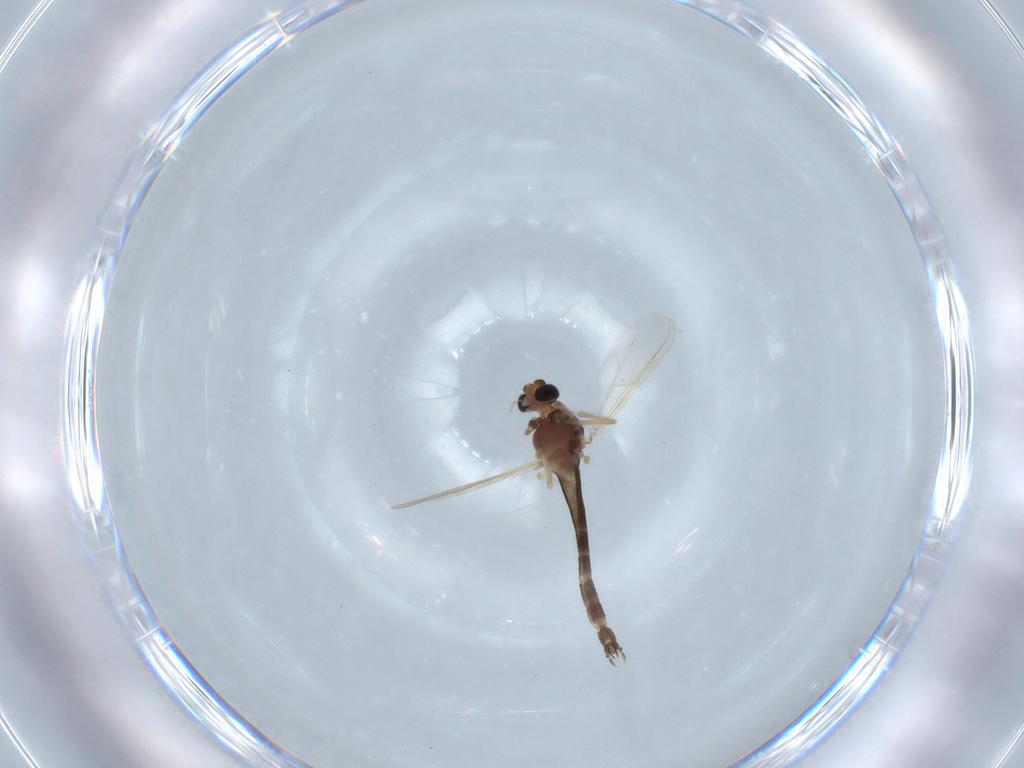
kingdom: Animalia
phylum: Arthropoda
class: Insecta
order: Diptera
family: Chironomidae
